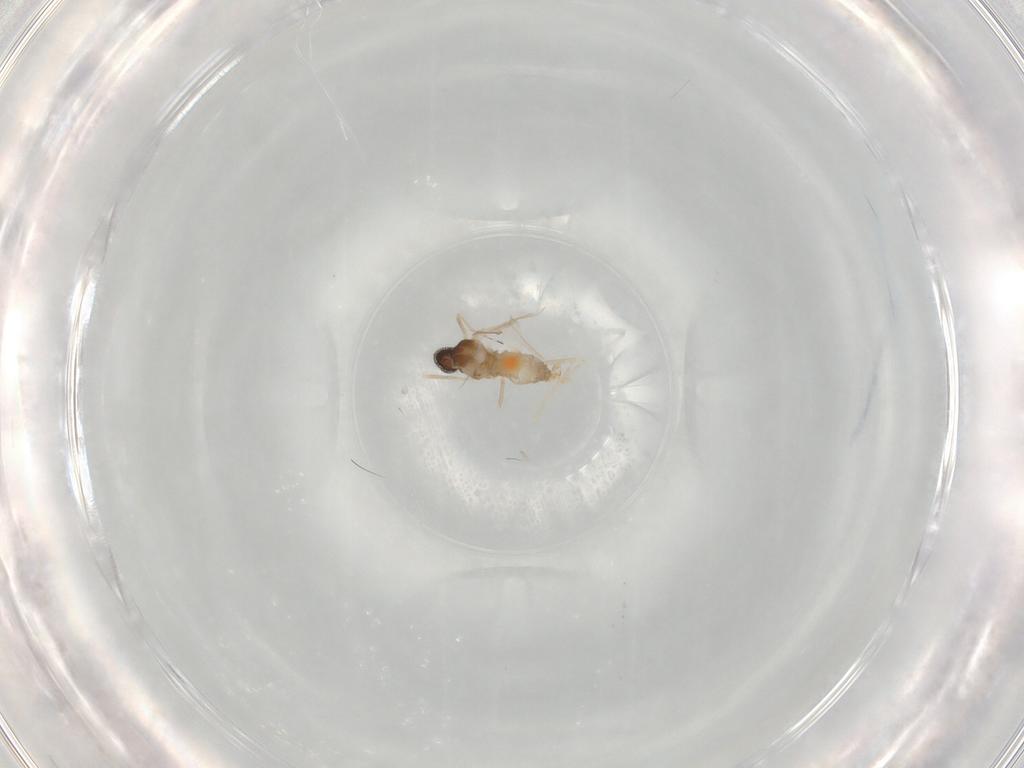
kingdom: Animalia
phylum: Arthropoda
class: Insecta
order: Diptera
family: Cecidomyiidae
